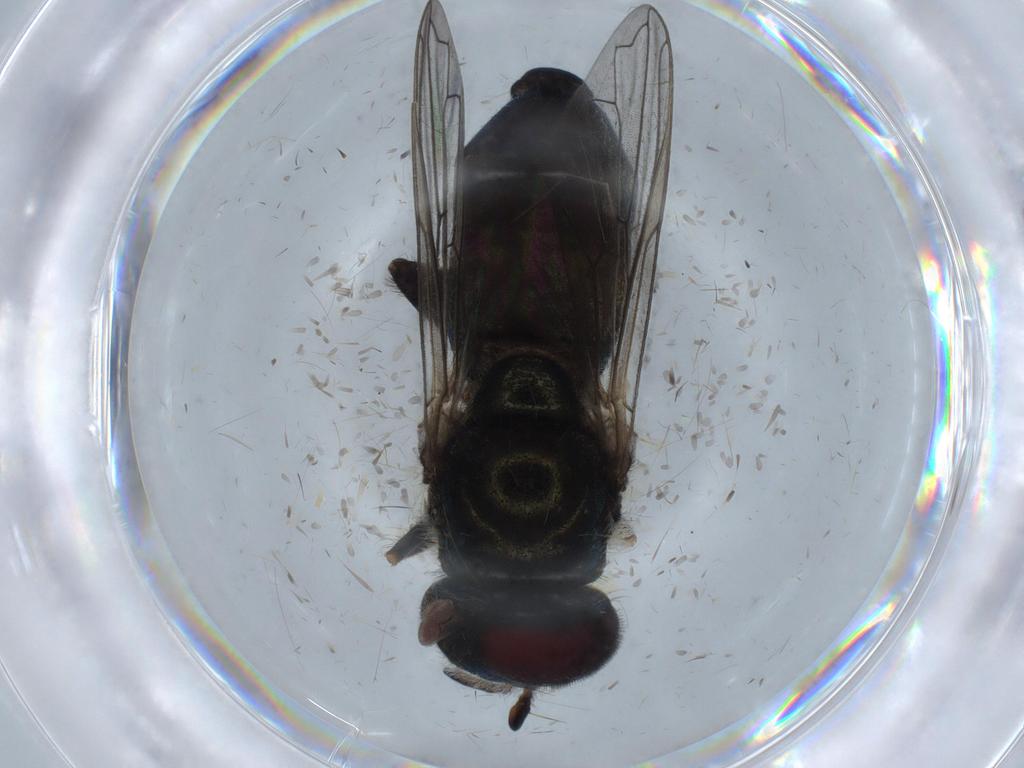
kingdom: Animalia
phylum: Arthropoda
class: Insecta
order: Diptera
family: Syrphidae
